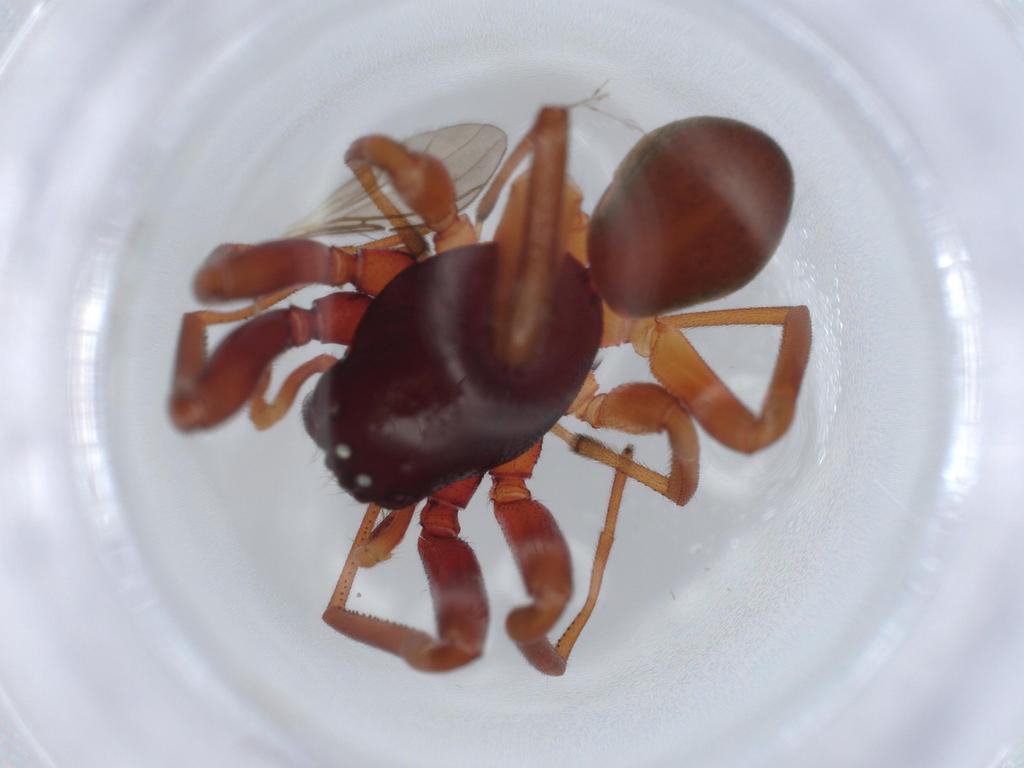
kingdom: Animalia
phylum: Arthropoda
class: Arachnida
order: Araneae
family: Trachelidae
